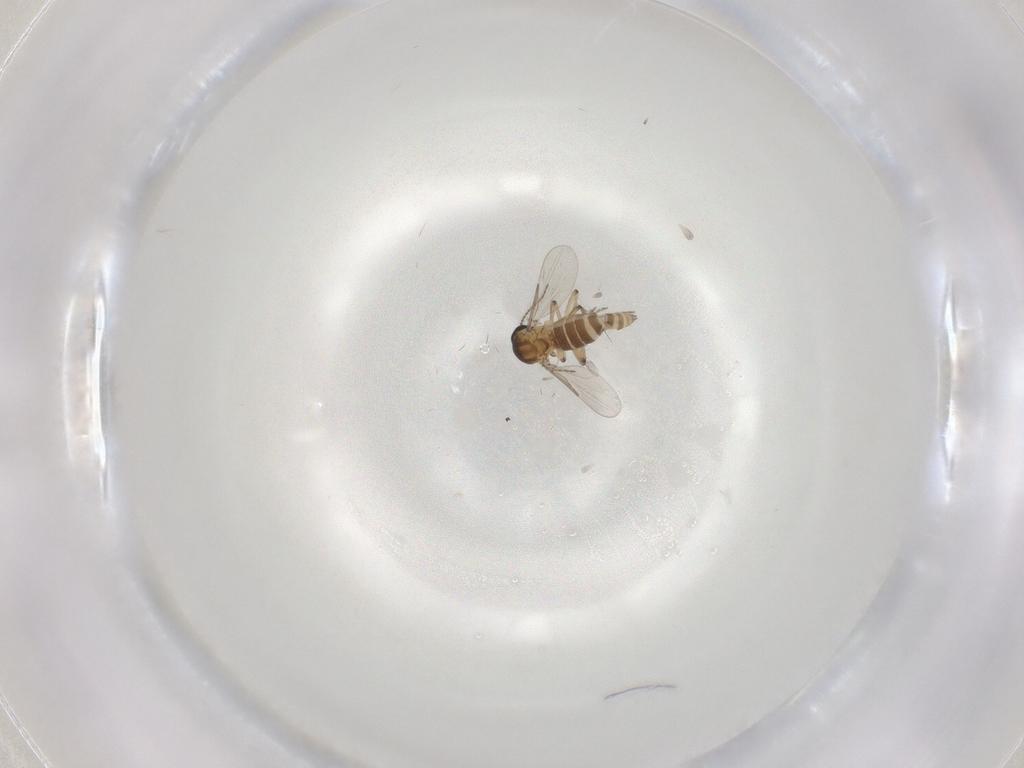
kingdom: Animalia
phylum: Arthropoda
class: Insecta
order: Diptera
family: Ceratopogonidae
